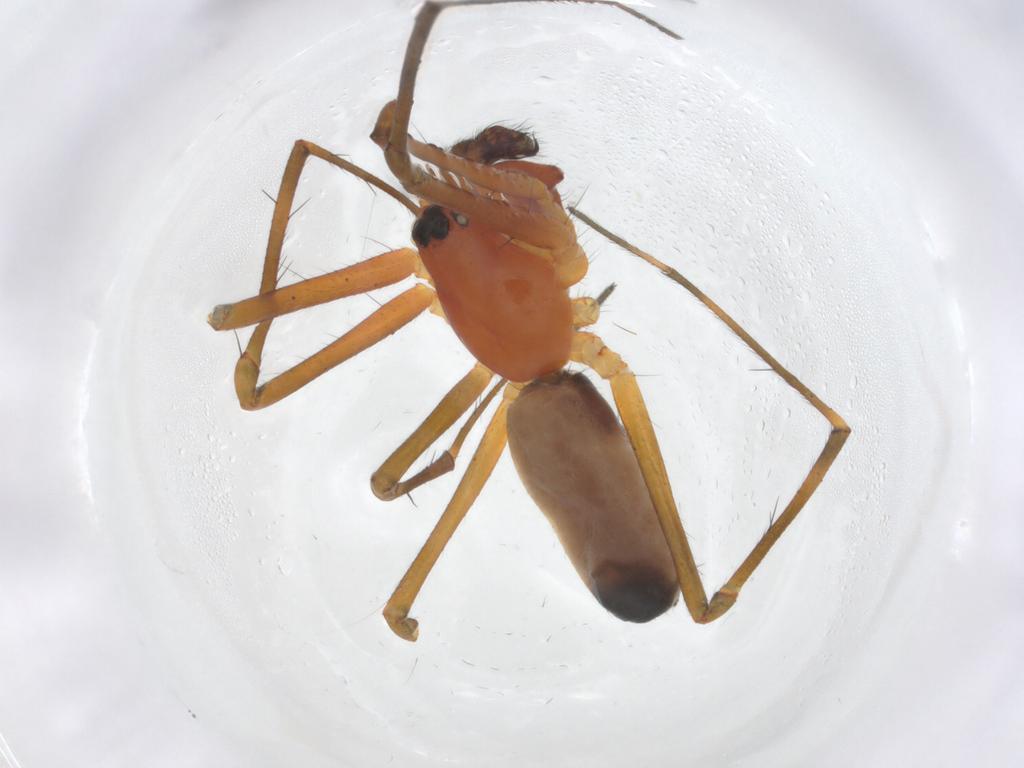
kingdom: Animalia
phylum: Arthropoda
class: Arachnida
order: Araneae
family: Linyphiidae
